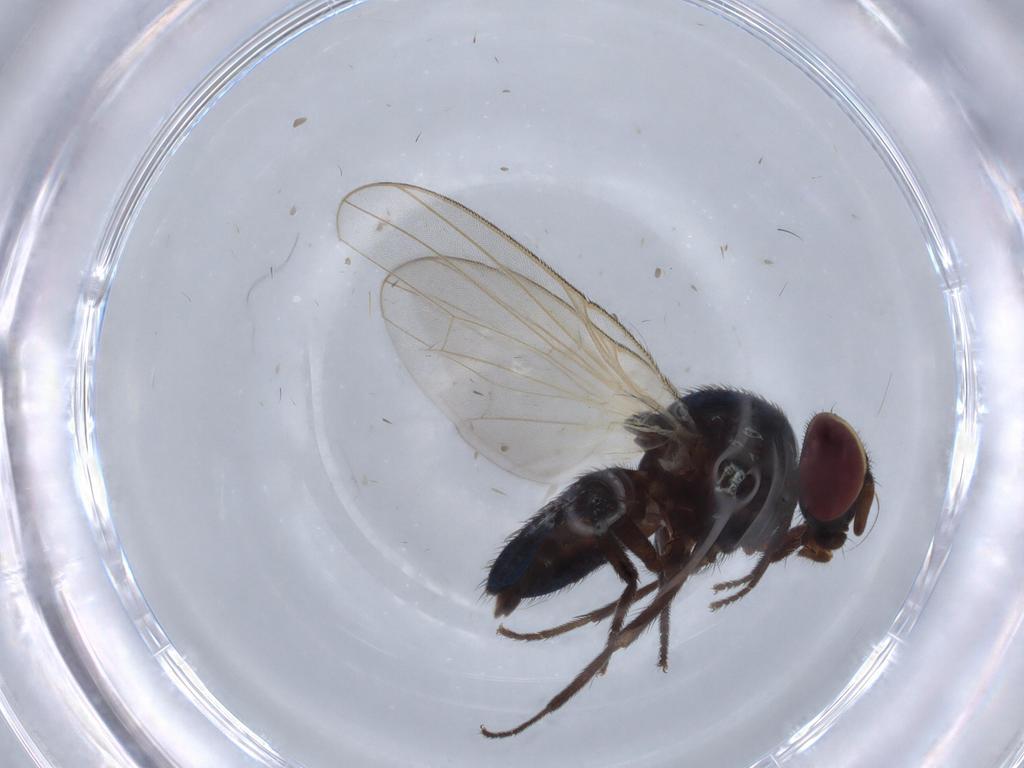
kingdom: Animalia
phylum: Arthropoda
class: Insecta
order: Diptera
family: Lonchaeidae
